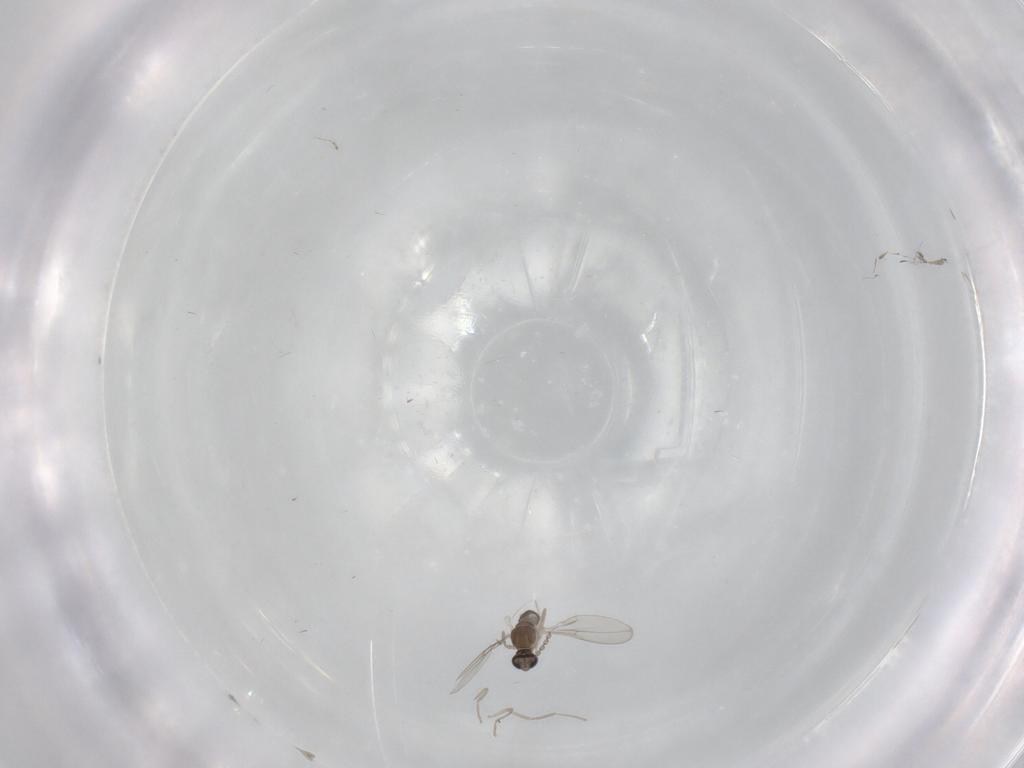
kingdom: Animalia
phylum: Arthropoda
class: Insecta
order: Diptera
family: Cecidomyiidae
